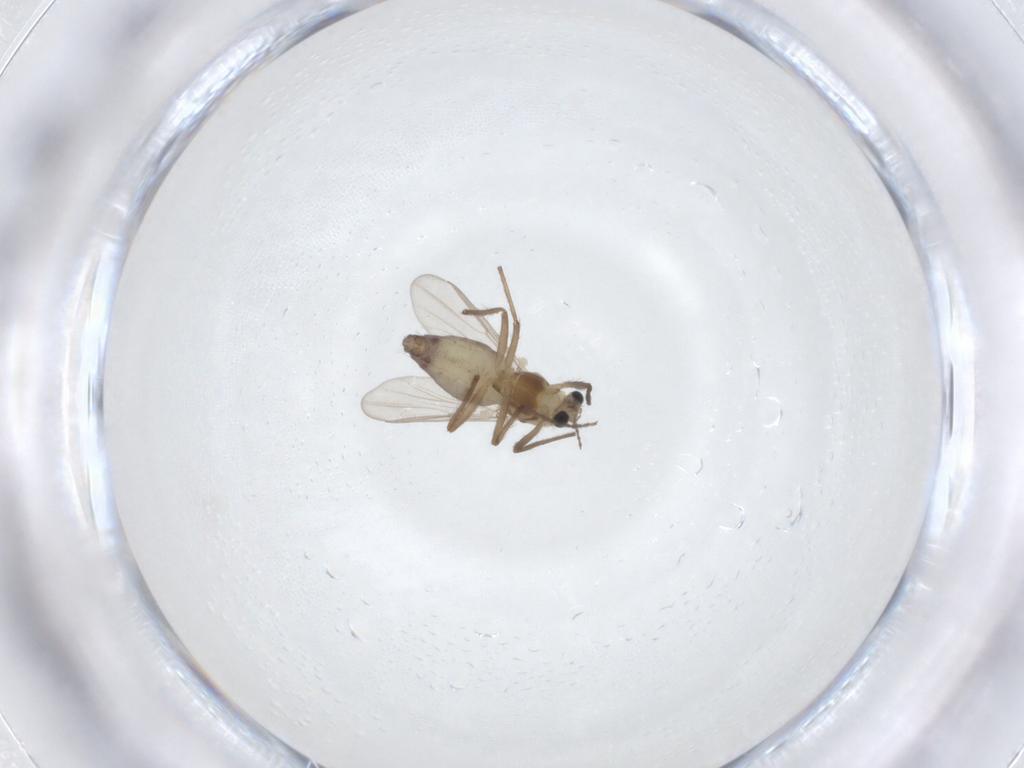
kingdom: Animalia
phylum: Arthropoda
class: Insecta
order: Diptera
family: Chironomidae
